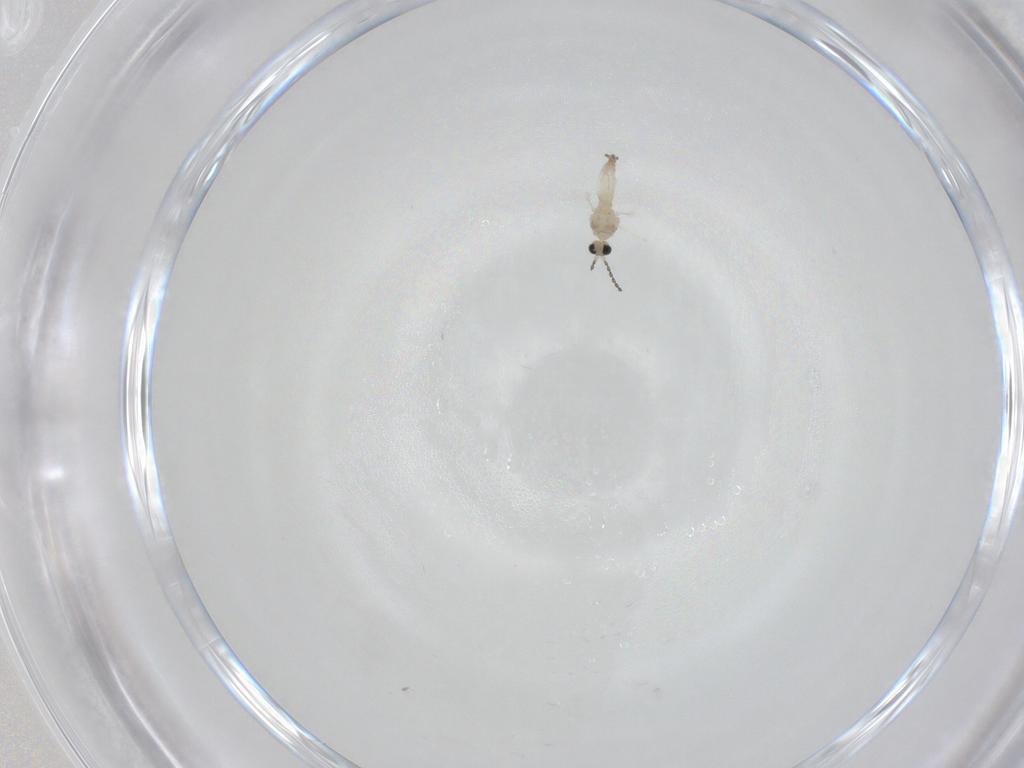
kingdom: Animalia
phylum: Arthropoda
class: Insecta
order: Diptera
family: Cecidomyiidae
